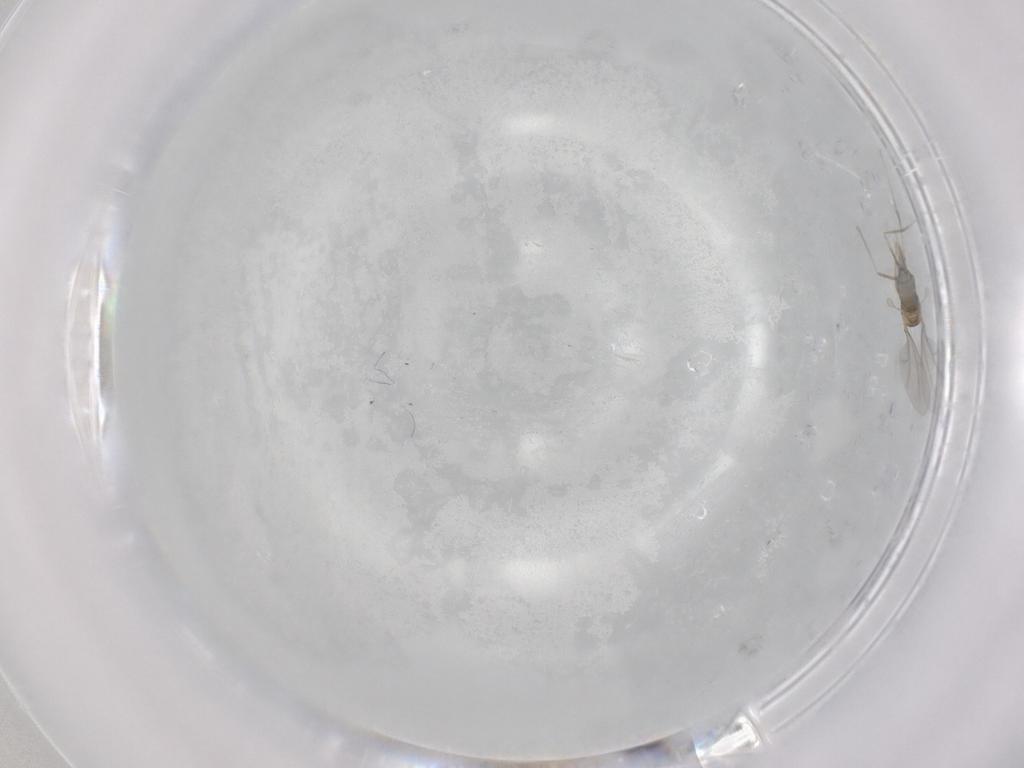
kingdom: Animalia
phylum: Arthropoda
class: Insecta
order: Diptera
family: Cecidomyiidae
